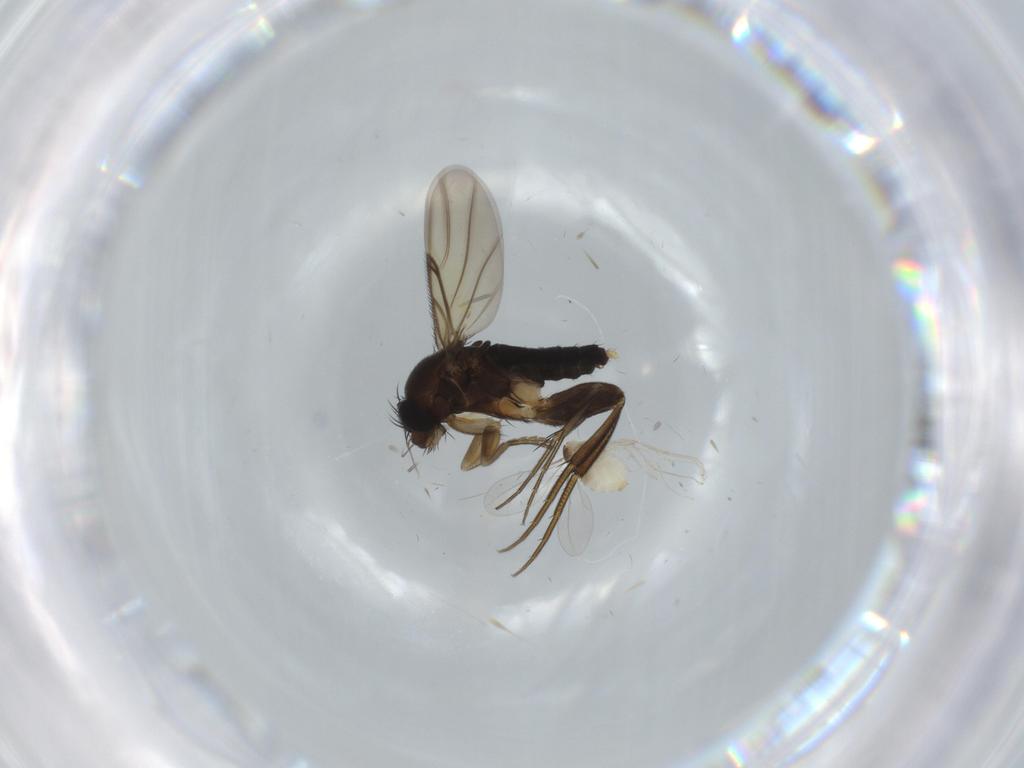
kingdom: Animalia
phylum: Arthropoda
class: Insecta
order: Diptera
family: Phoridae
